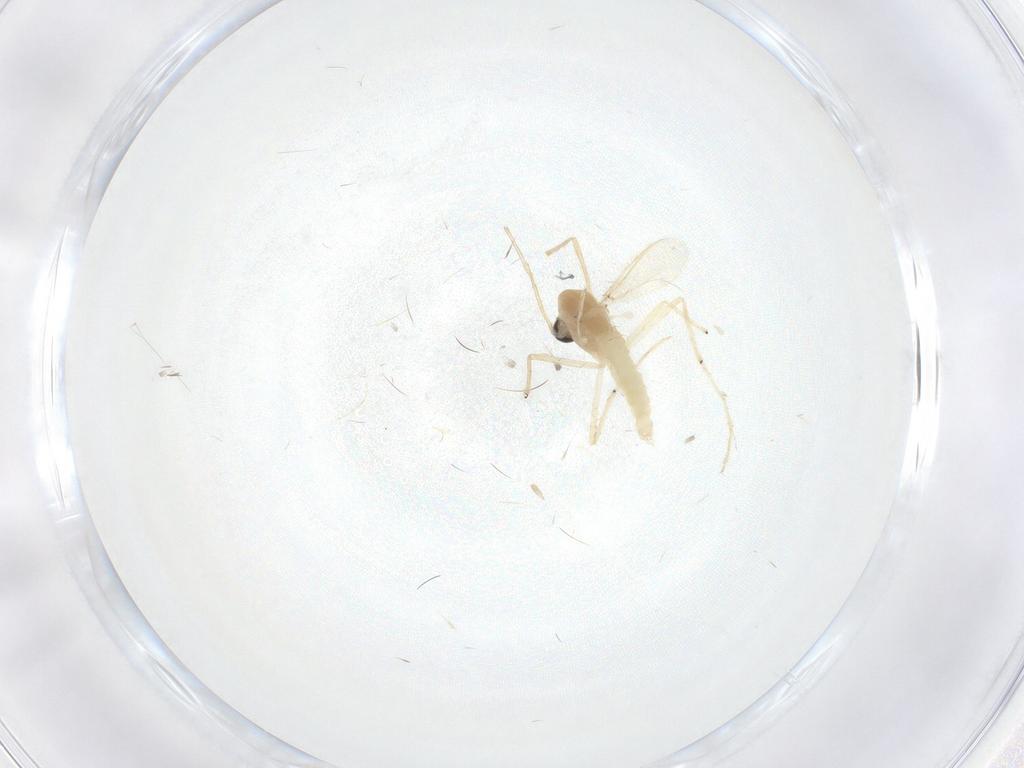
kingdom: Animalia
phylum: Arthropoda
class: Insecta
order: Diptera
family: Chironomidae
